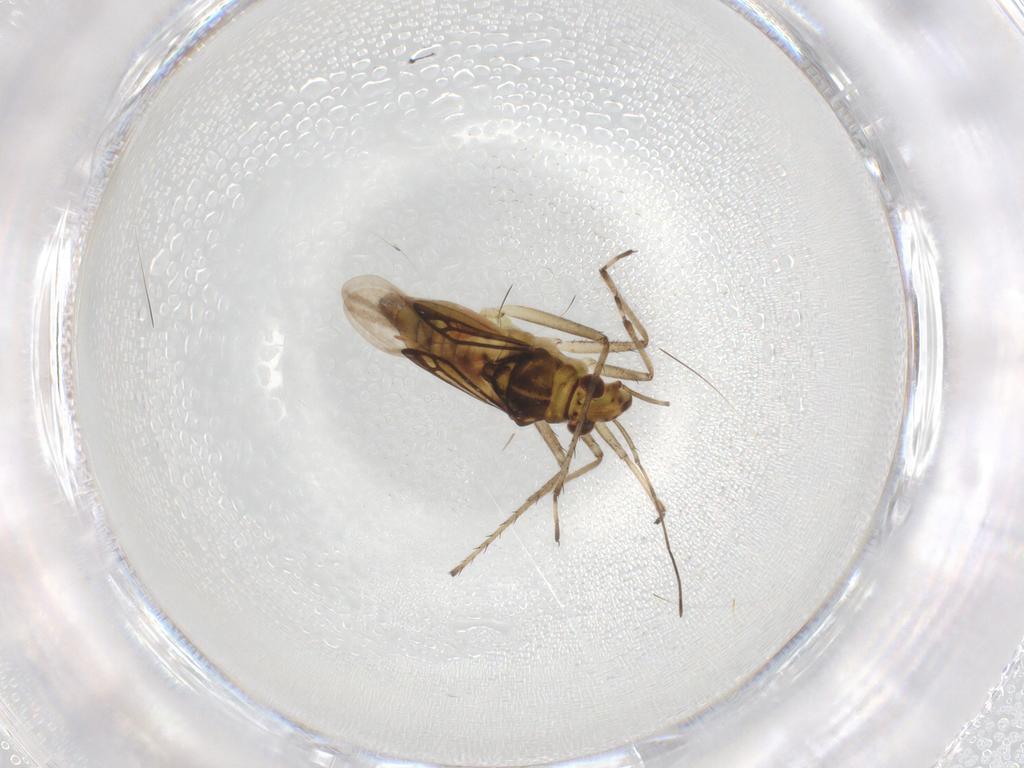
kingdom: Animalia
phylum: Arthropoda
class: Insecta
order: Hemiptera
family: Mesoveliidae
